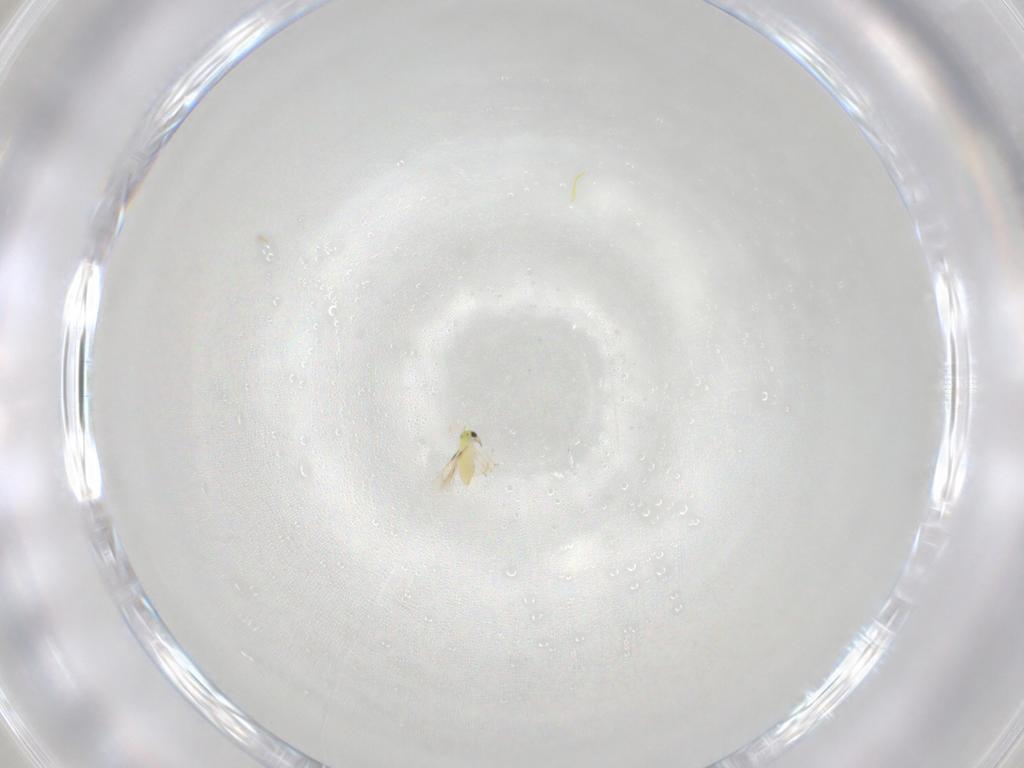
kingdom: Animalia
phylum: Arthropoda
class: Insecta
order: Hymenoptera
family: Trichogrammatidae
